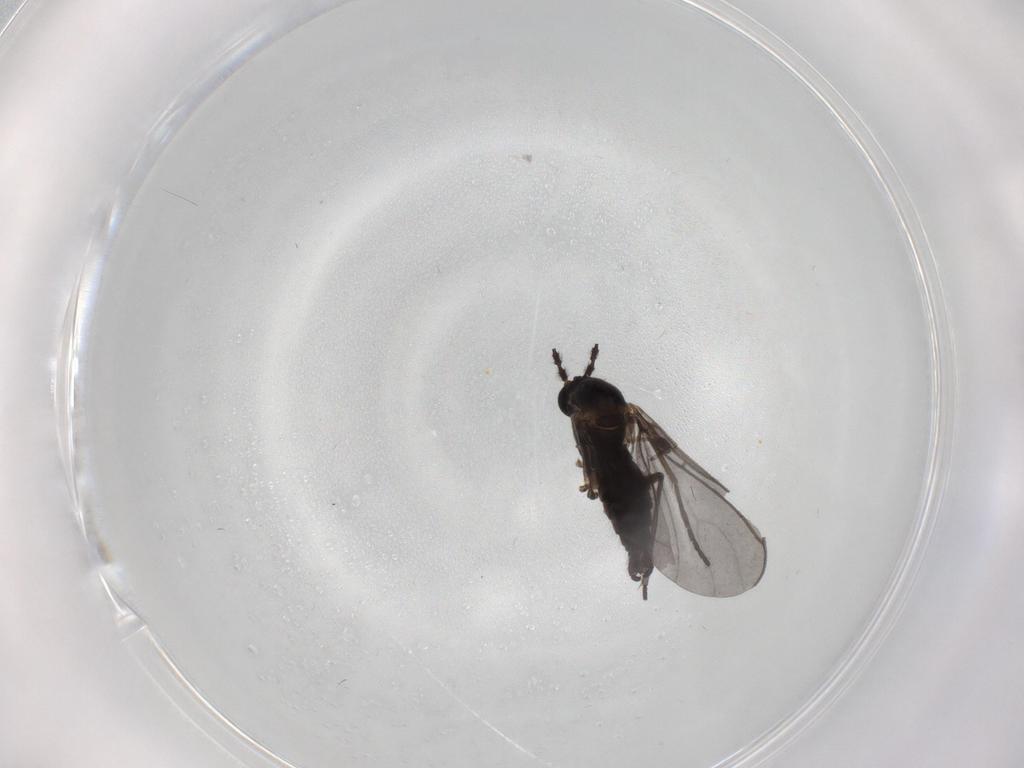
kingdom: Animalia
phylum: Arthropoda
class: Insecta
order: Diptera
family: Sciaridae
